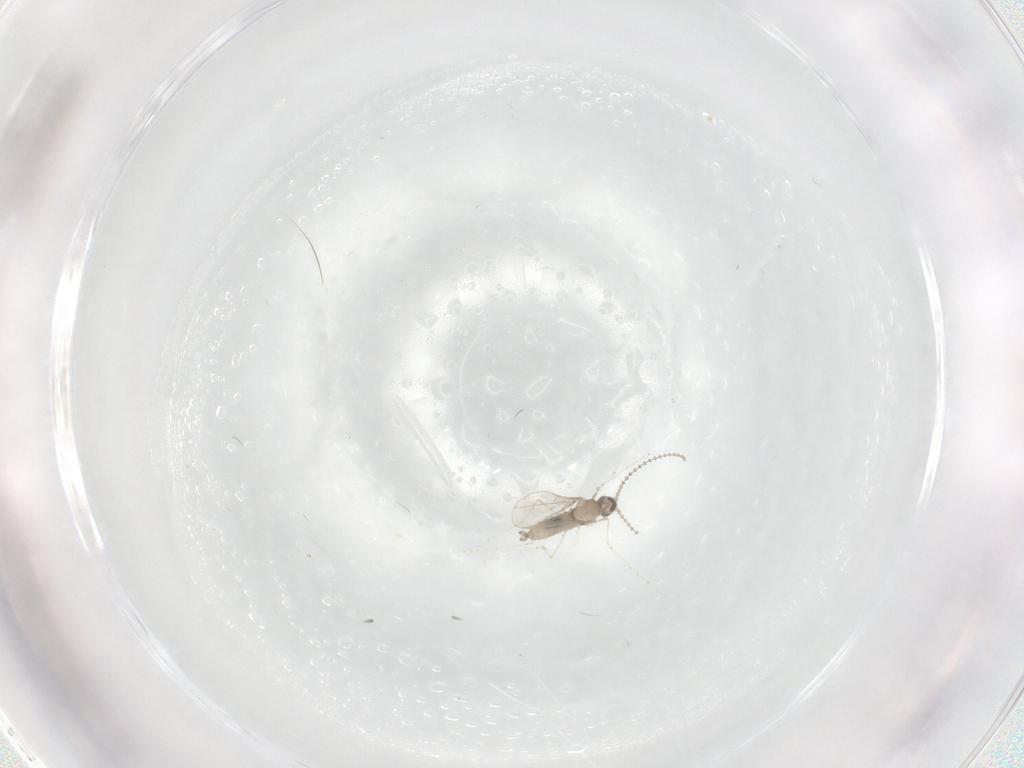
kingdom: Animalia
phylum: Arthropoda
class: Insecta
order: Diptera
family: Cecidomyiidae
